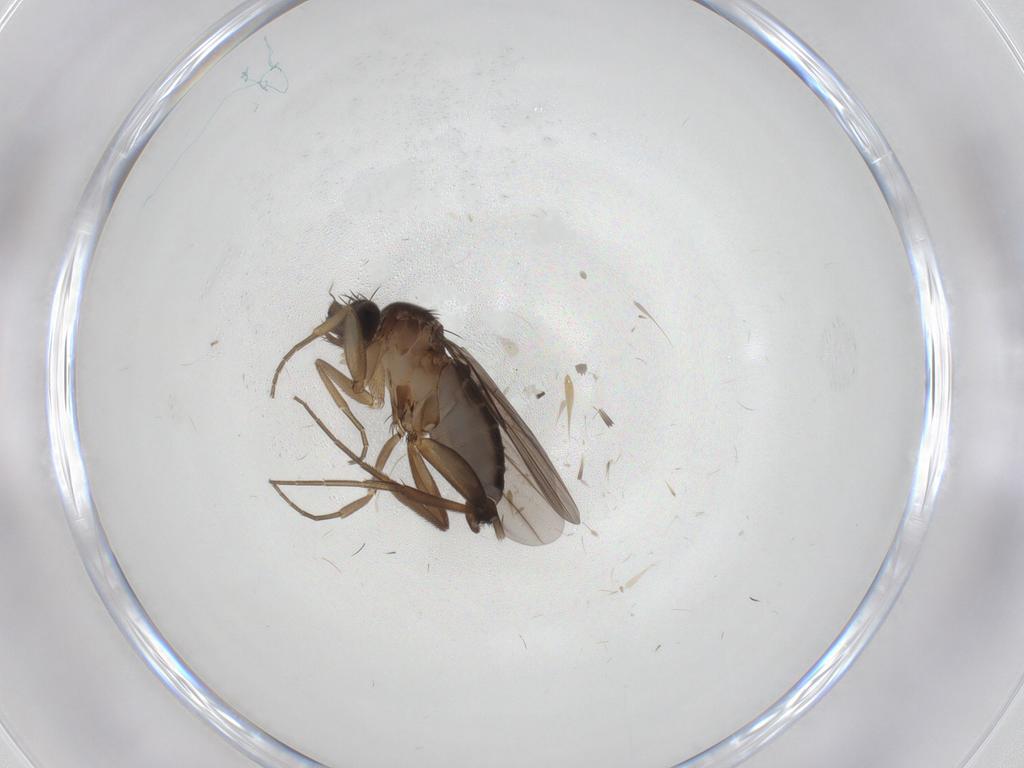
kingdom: Animalia
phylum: Arthropoda
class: Insecta
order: Diptera
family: Phoridae
